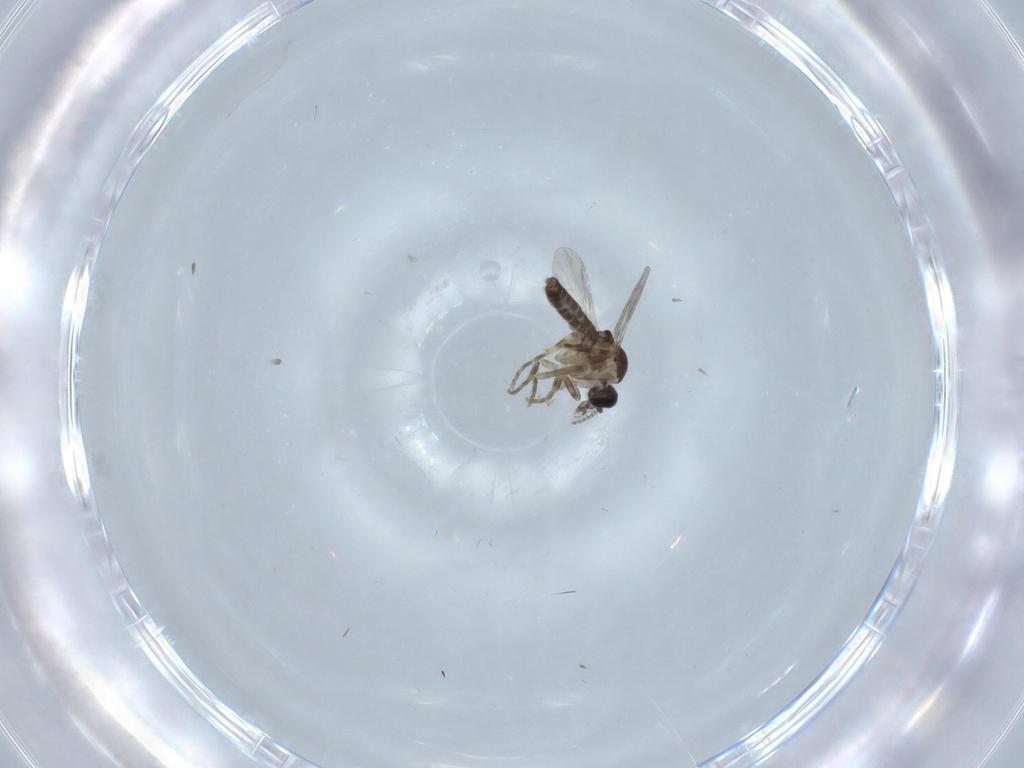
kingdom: Animalia
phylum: Arthropoda
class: Insecta
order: Diptera
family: Ceratopogonidae
